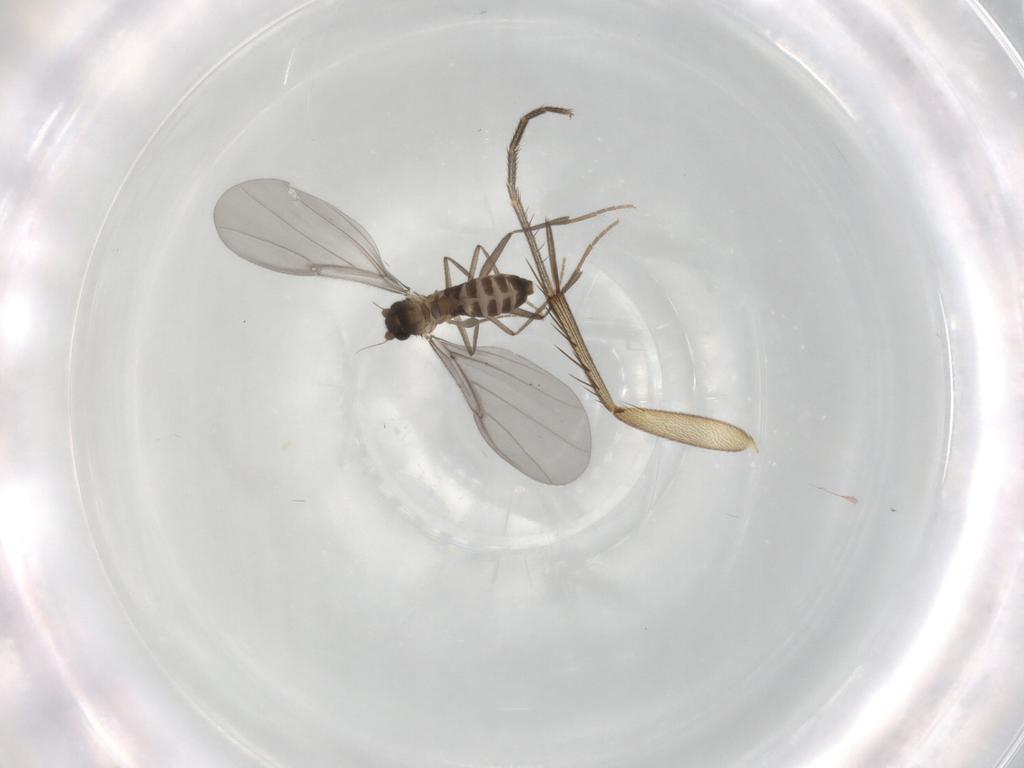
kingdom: Animalia
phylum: Arthropoda
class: Insecta
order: Diptera
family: Phoridae
